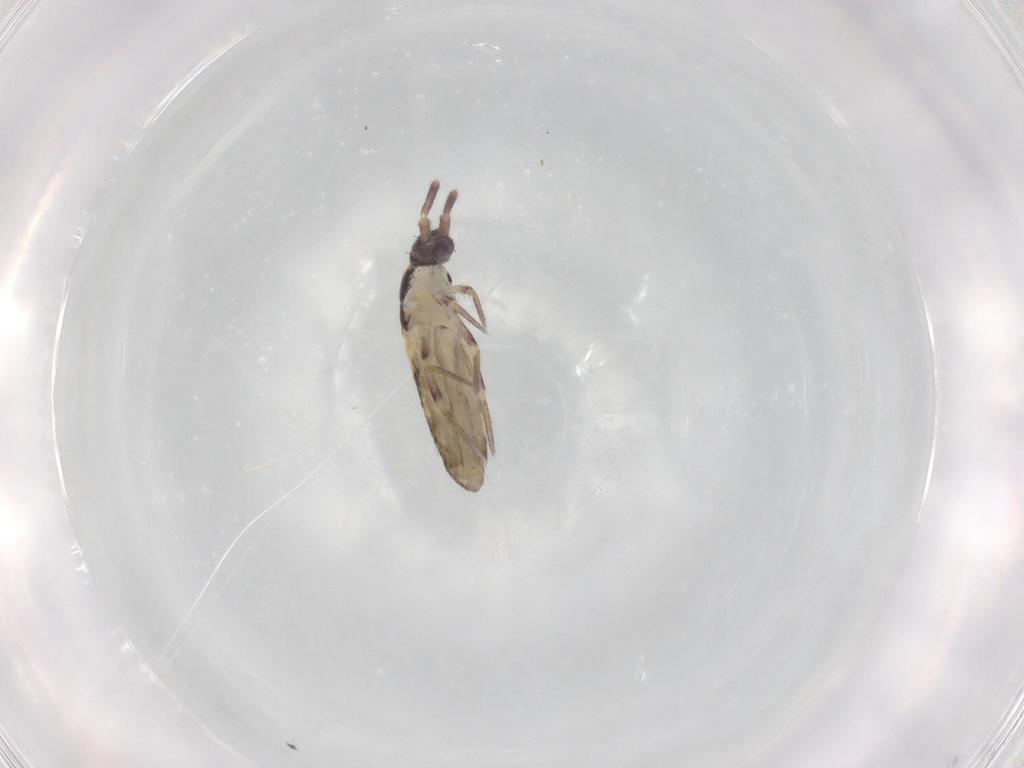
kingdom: Animalia
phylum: Arthropoda
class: Collembola
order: Entomobryomorpha
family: Entomobryidae
